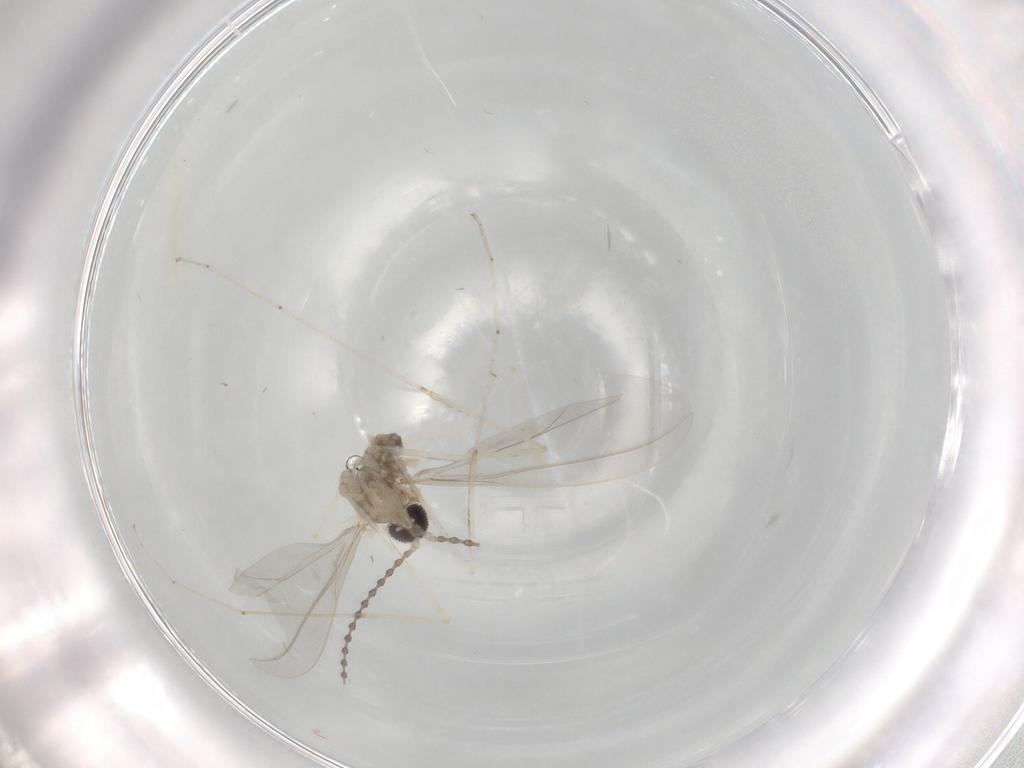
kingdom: Animalia
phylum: Arthropoda
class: Insecta
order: Diptera
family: Cecidomyiidae
